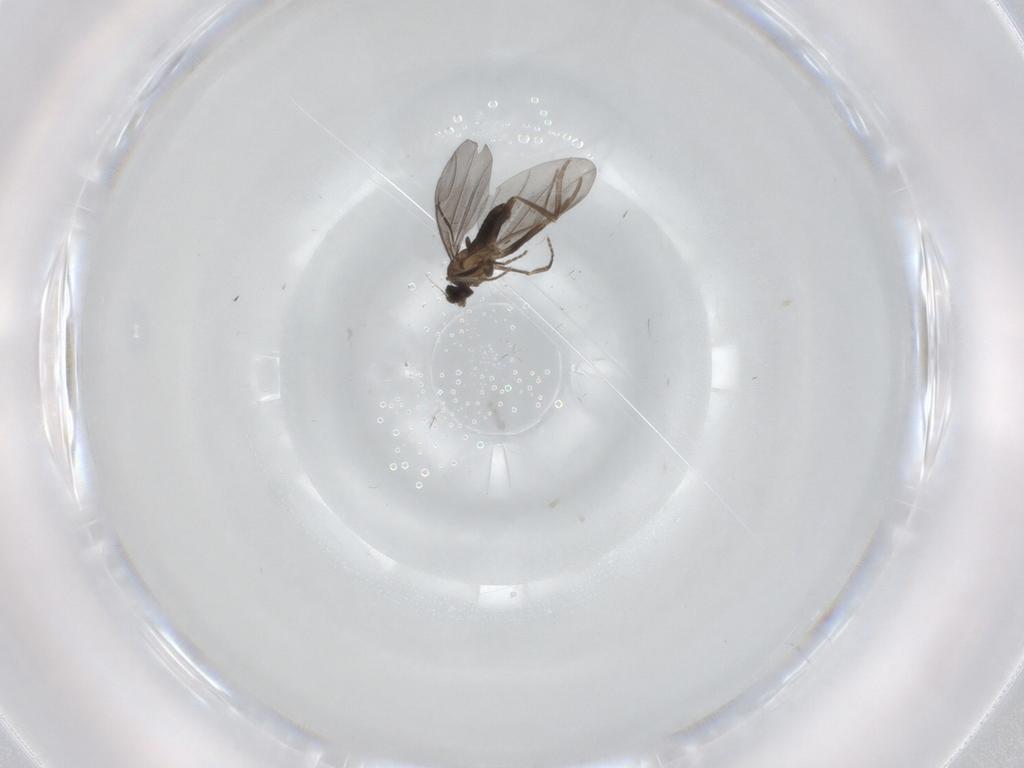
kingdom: Animalia
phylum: Arthropoda
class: Insecta
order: Diptera
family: Phoridae
